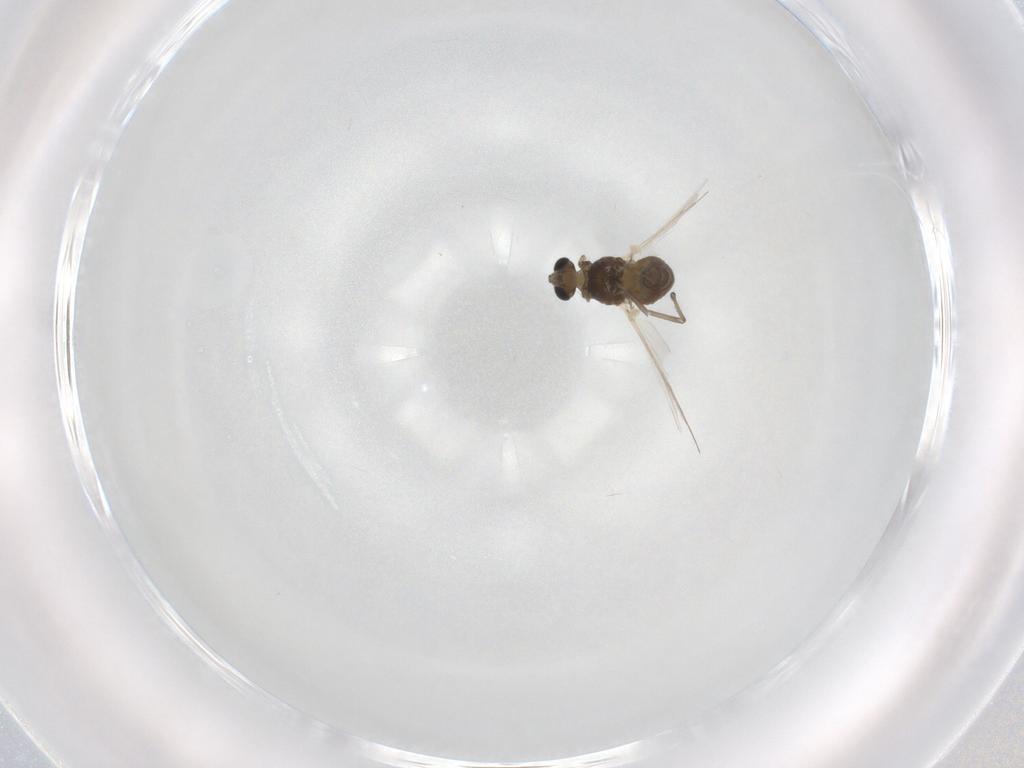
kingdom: Animalia
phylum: Arthropoda
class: Insecta
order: Diptera
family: Chironomidae
